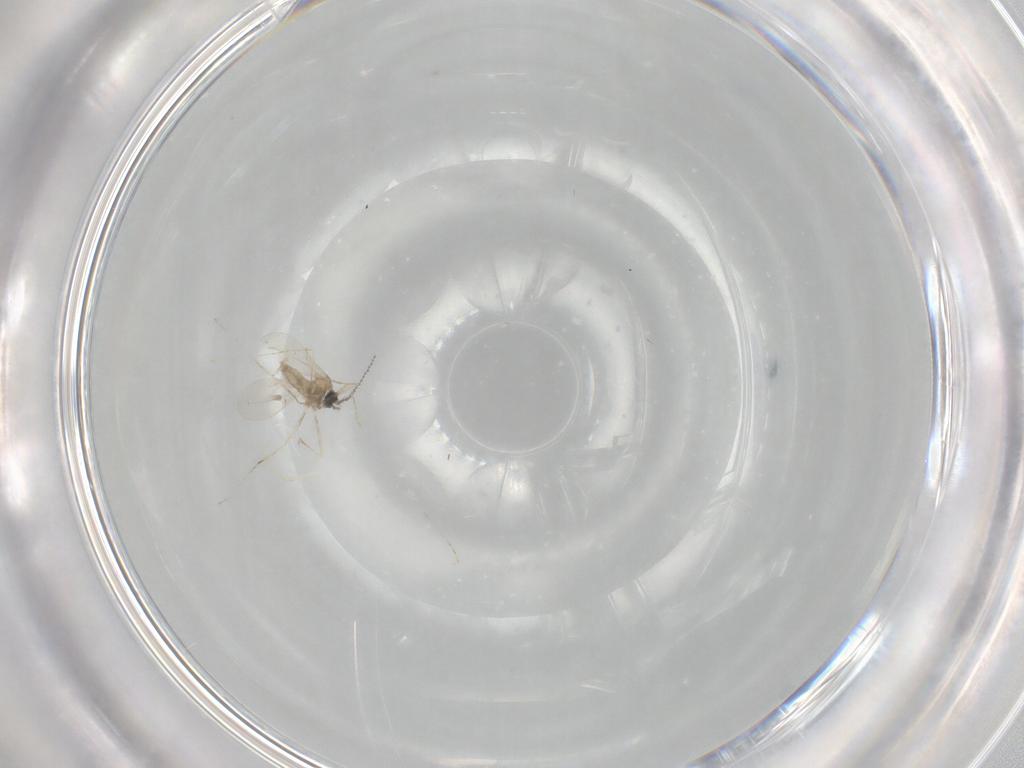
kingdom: Animalia
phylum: Arthropoda
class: Insecta
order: Diptera
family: Cecidomyiidae
